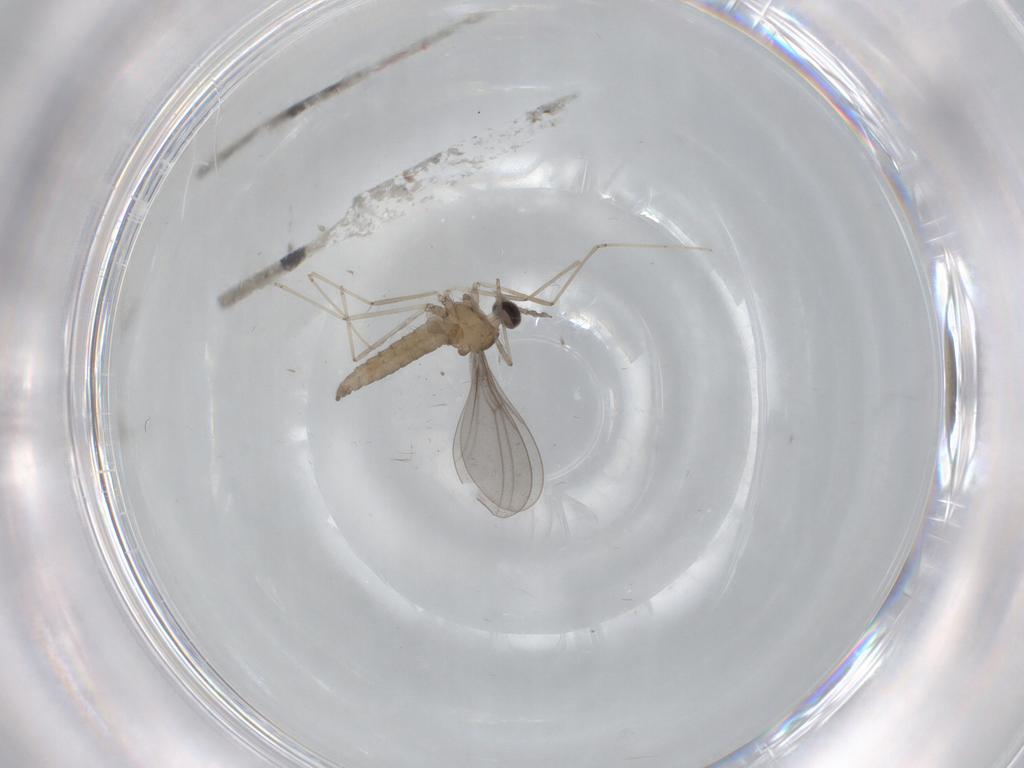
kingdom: Animalia
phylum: Arthropoda
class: Insecta
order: Diptera
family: Cecidomyiidae
